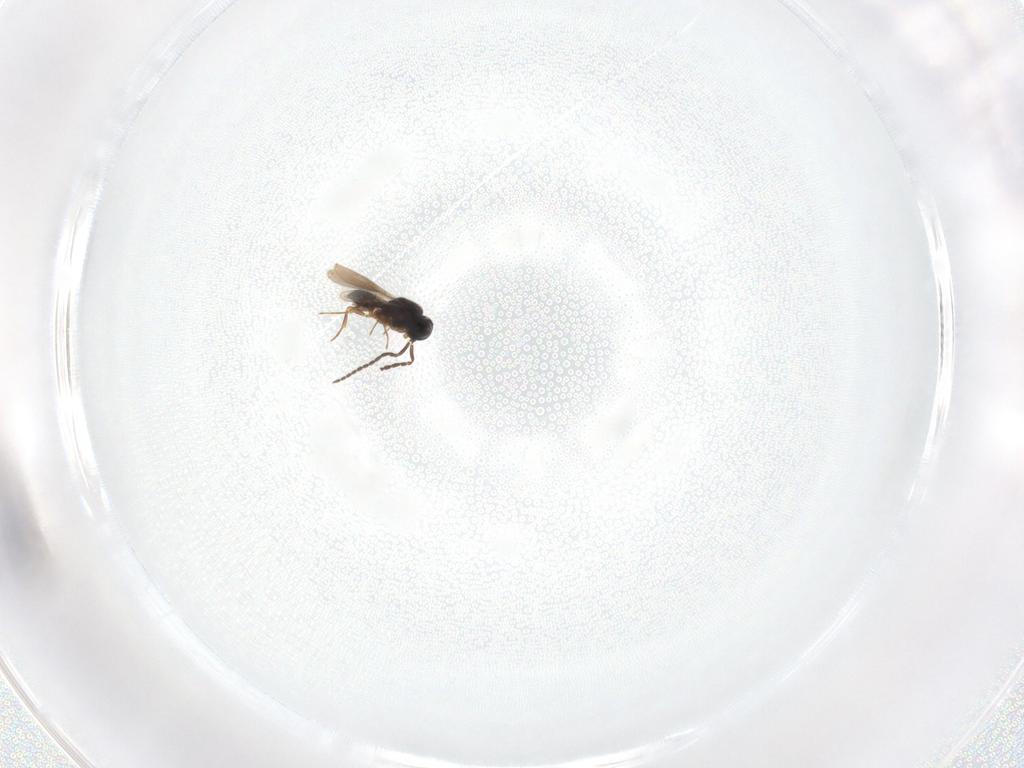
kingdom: Animalia
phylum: Arthropoda
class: Insecta
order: Hymenoptera
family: Scelionidae
